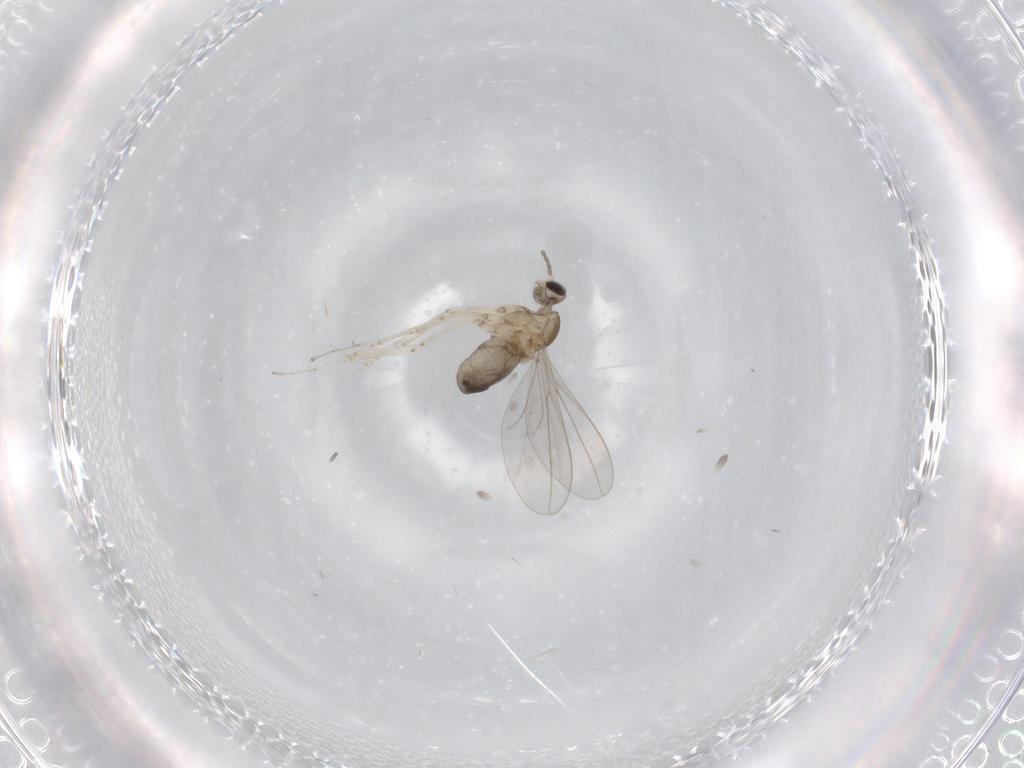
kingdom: Animalia
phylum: Arthropoda
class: Insecta
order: Diptera
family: Cecidomyiidae
